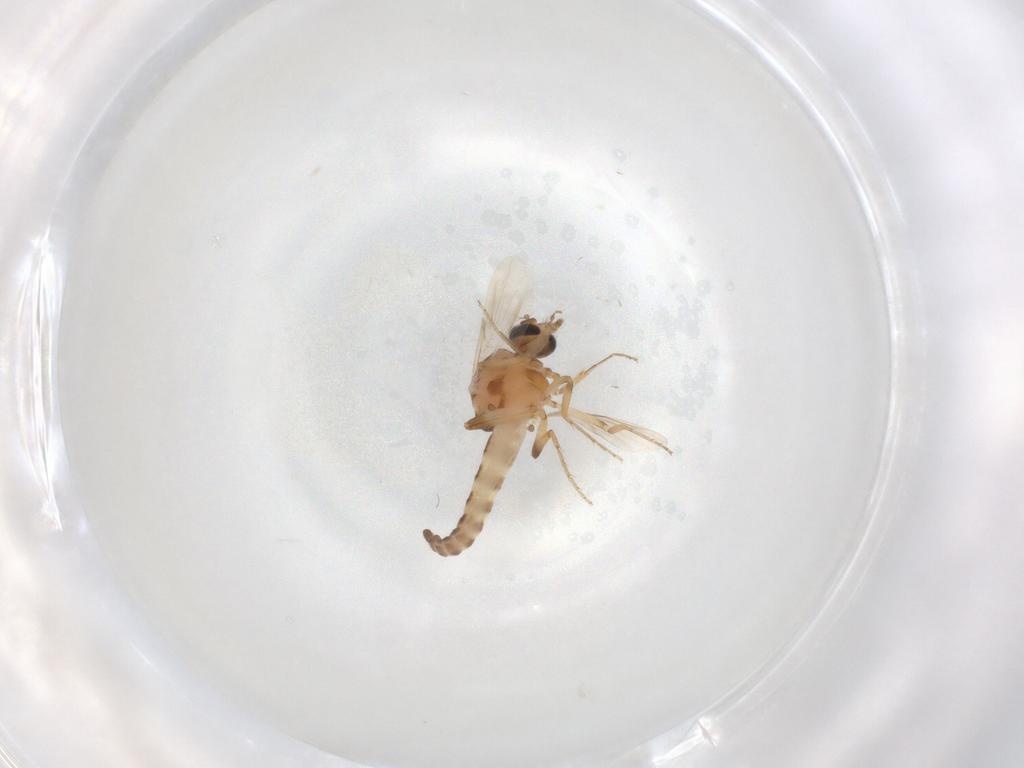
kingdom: Animalia
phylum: Arthropoda
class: Insecta
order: Diptera
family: Ceratopogonidae
